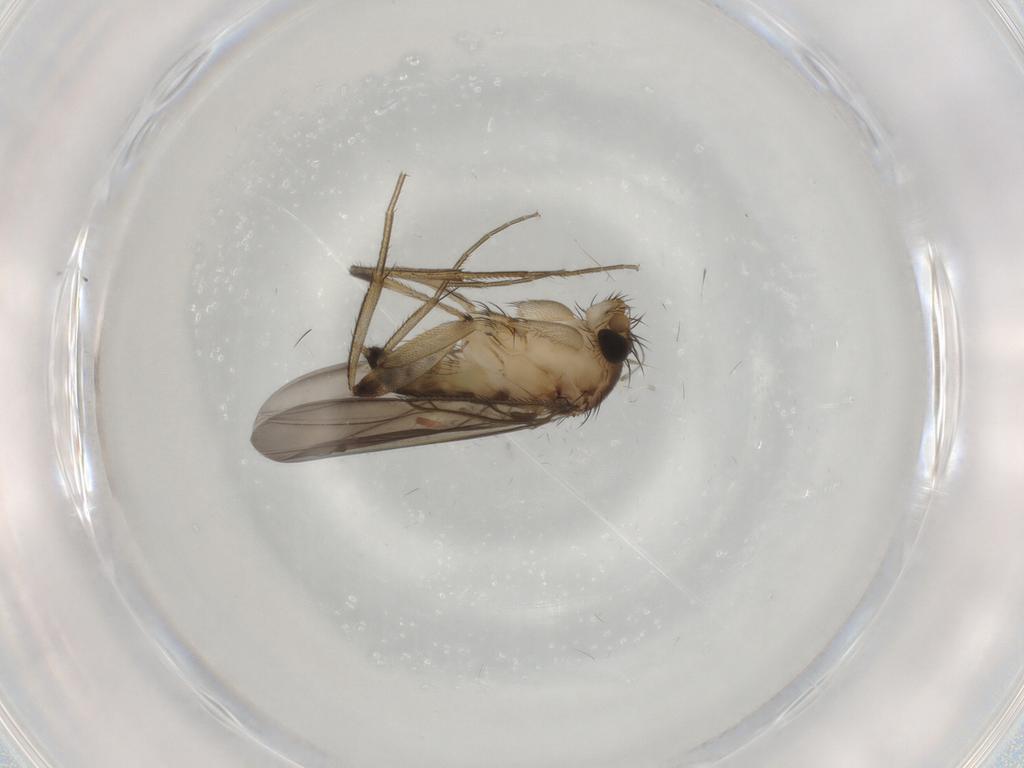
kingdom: Animalia
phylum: Arthropoda
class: Insecta
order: Diptera
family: Phoridae
